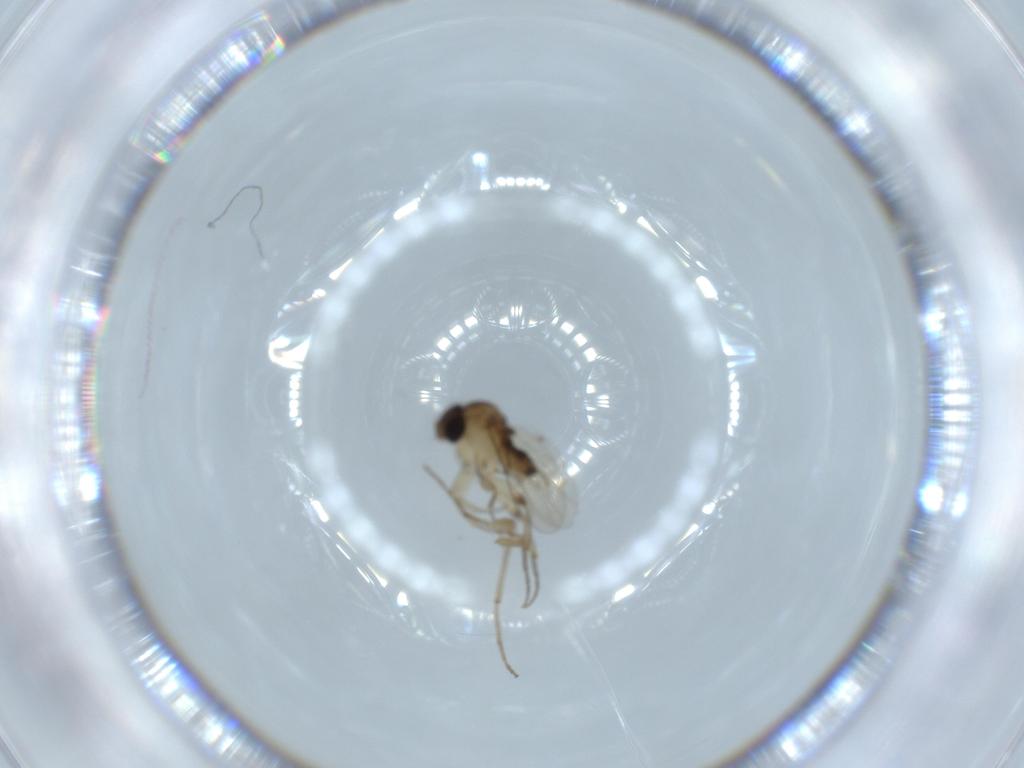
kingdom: Animalia
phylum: Arthropoda
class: Insecta
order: Diptera
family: Cecidomyiidae
